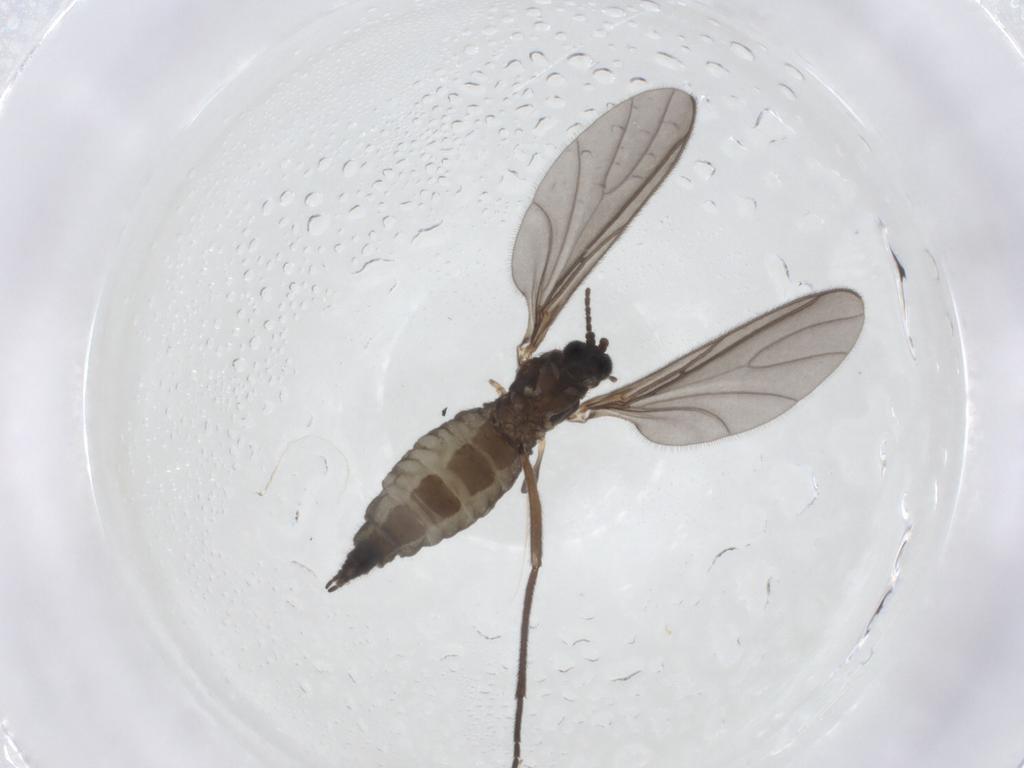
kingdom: Animalia
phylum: Arthropoda
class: Insecta
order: Diptera
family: Sciaridae
